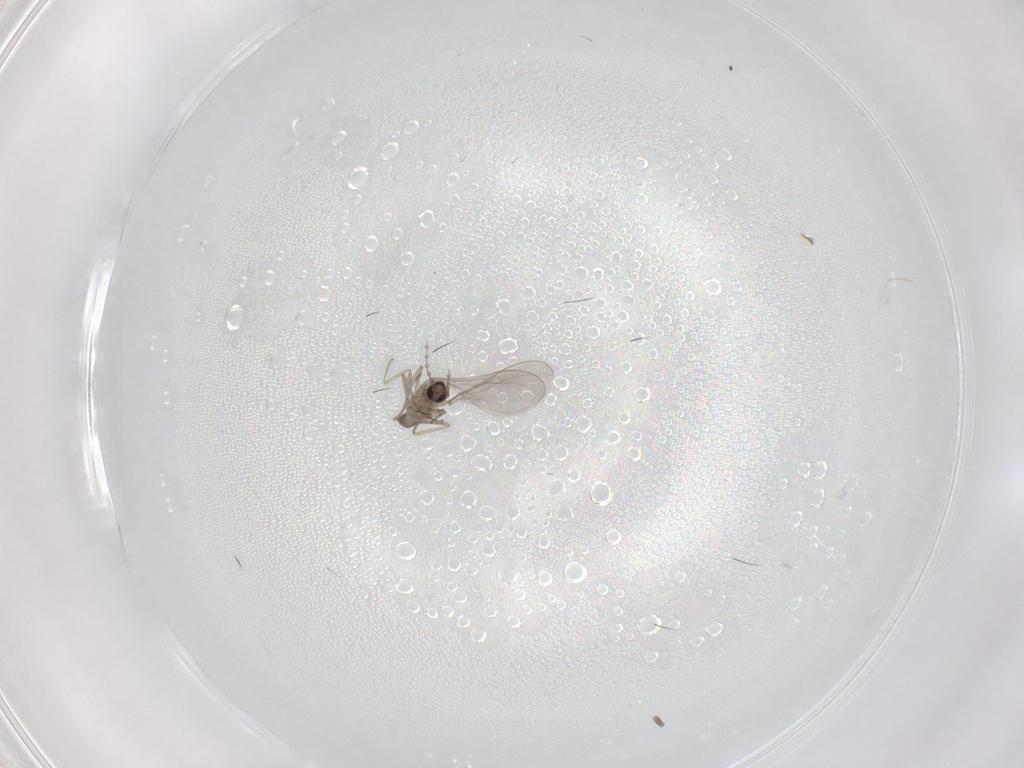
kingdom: Animalia
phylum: Arthropoda
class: Insecta
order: Diptera
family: Cecidomyiidae
